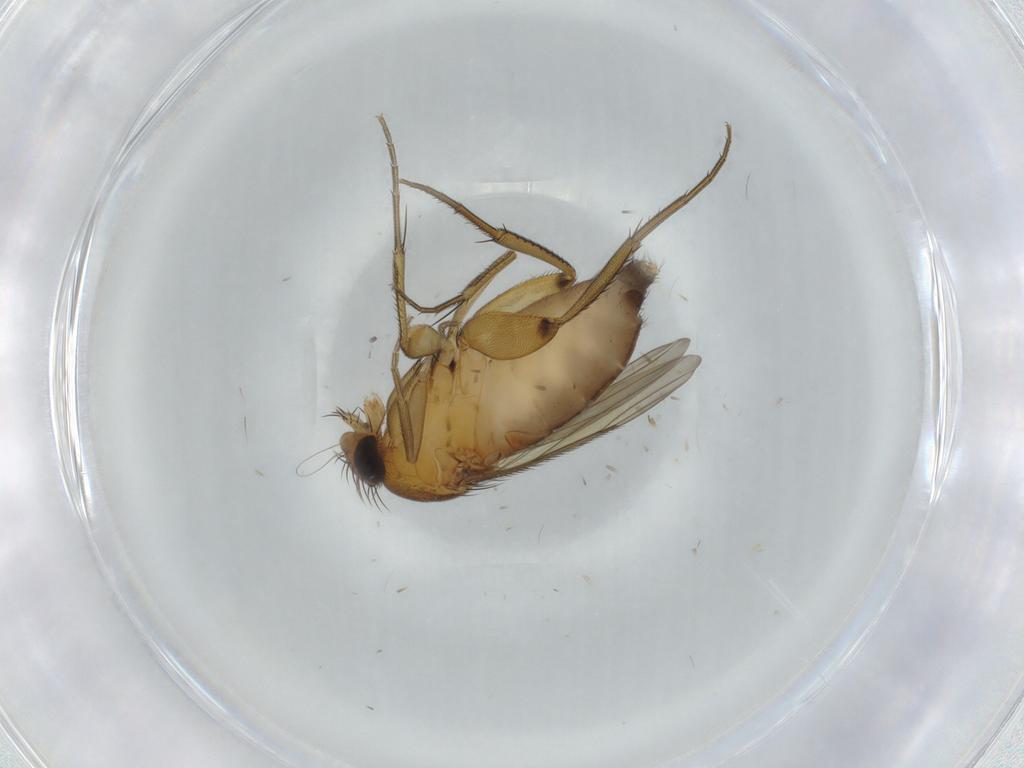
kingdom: Animalia
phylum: Arthropoda
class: Insecta
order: Diptera
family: Phoridae
